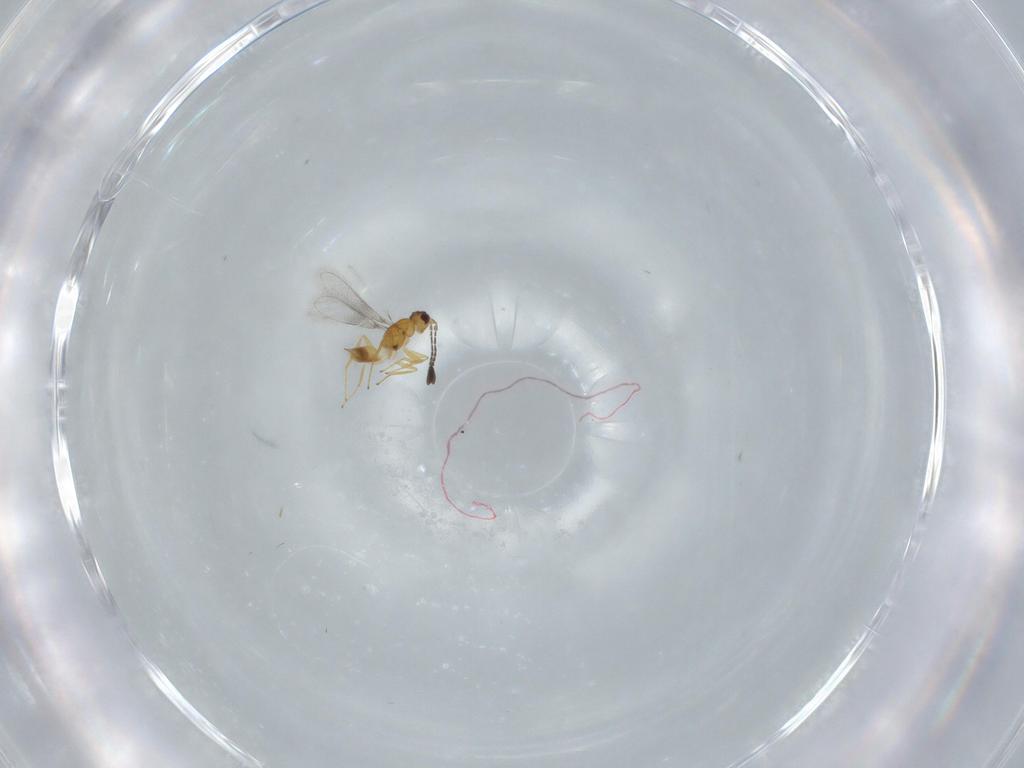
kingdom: Animalia
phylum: Arthropoda
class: Insecta
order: Hymenoptera
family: Mymaridae
